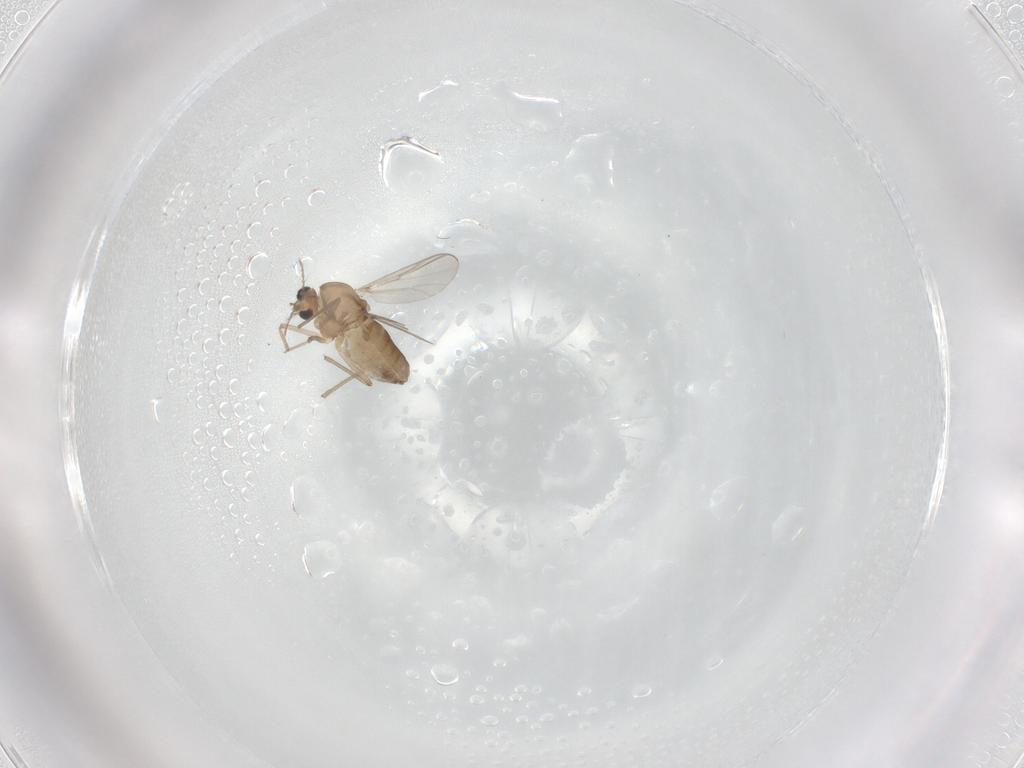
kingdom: Animalia
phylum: Arthropoda
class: Insecta
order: Diptera
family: Chironomidae
